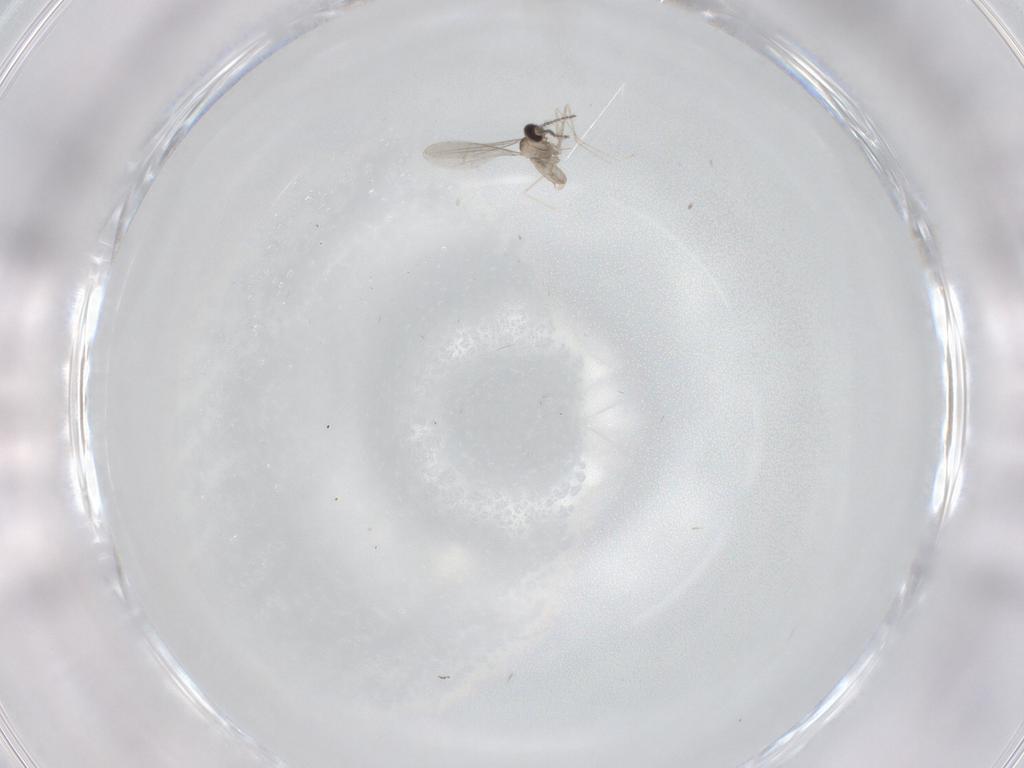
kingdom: Animalia
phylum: Arthropoda
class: Insecta
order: Diptera
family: Cecidomyiidae
